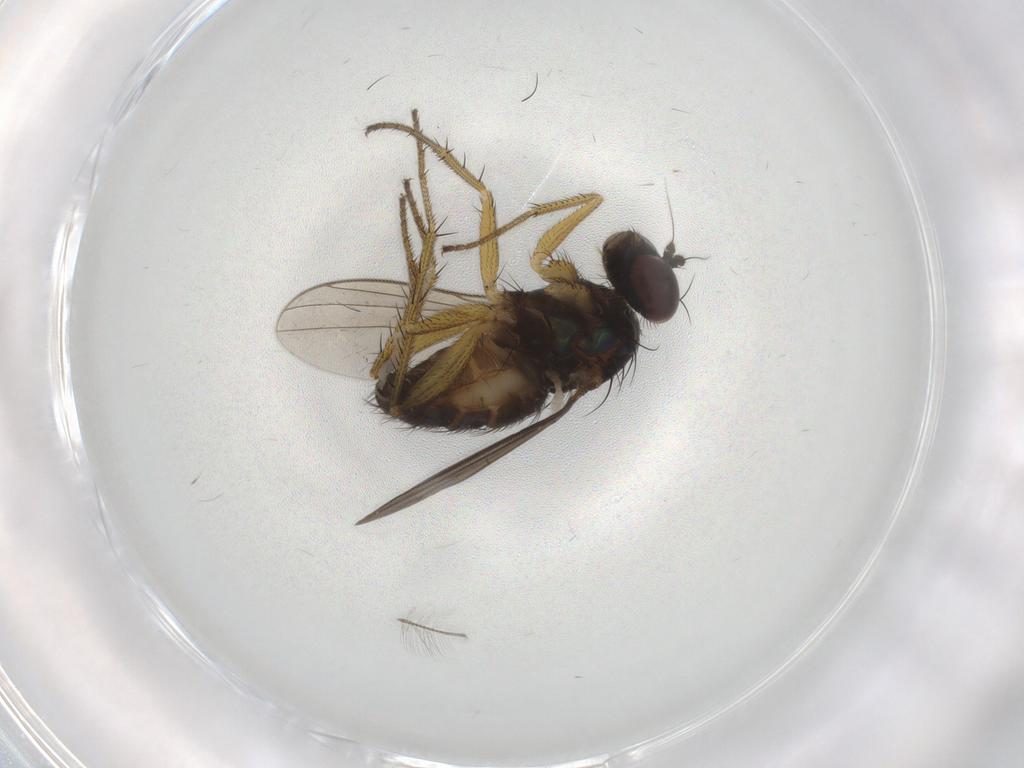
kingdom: Animalia
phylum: Arthropoda
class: Insecta
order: Diptera
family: Dolichopodidae
